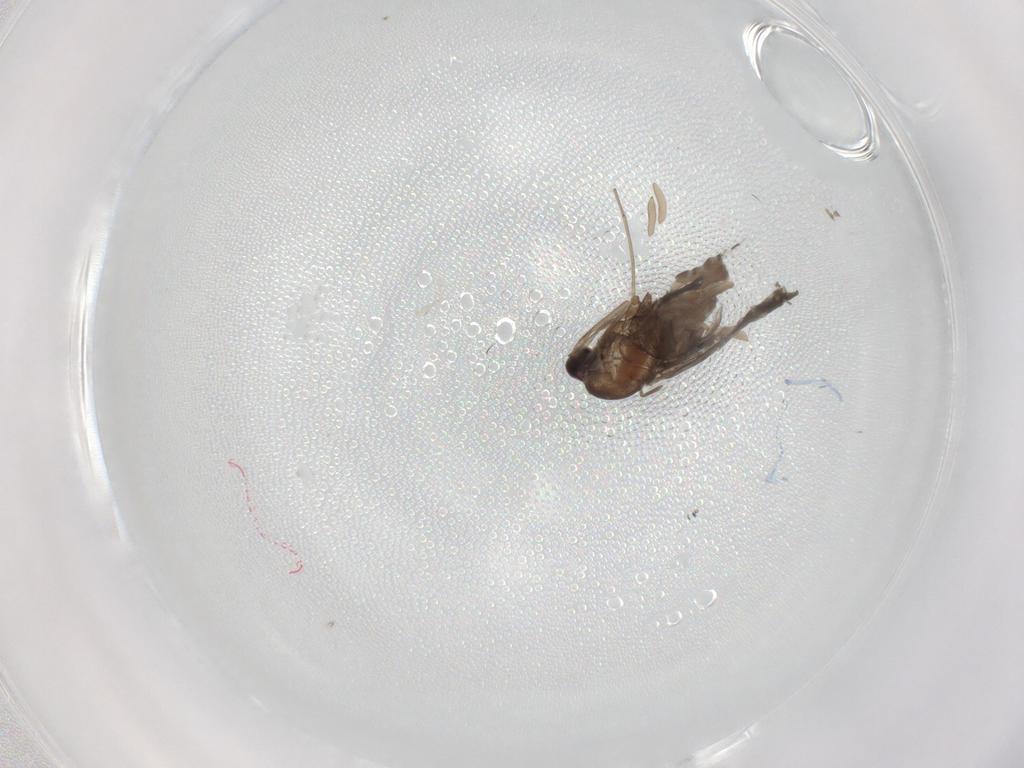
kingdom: Animalia
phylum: Arthropoda
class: Insecta
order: Diptera
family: Cecidomyiidae
